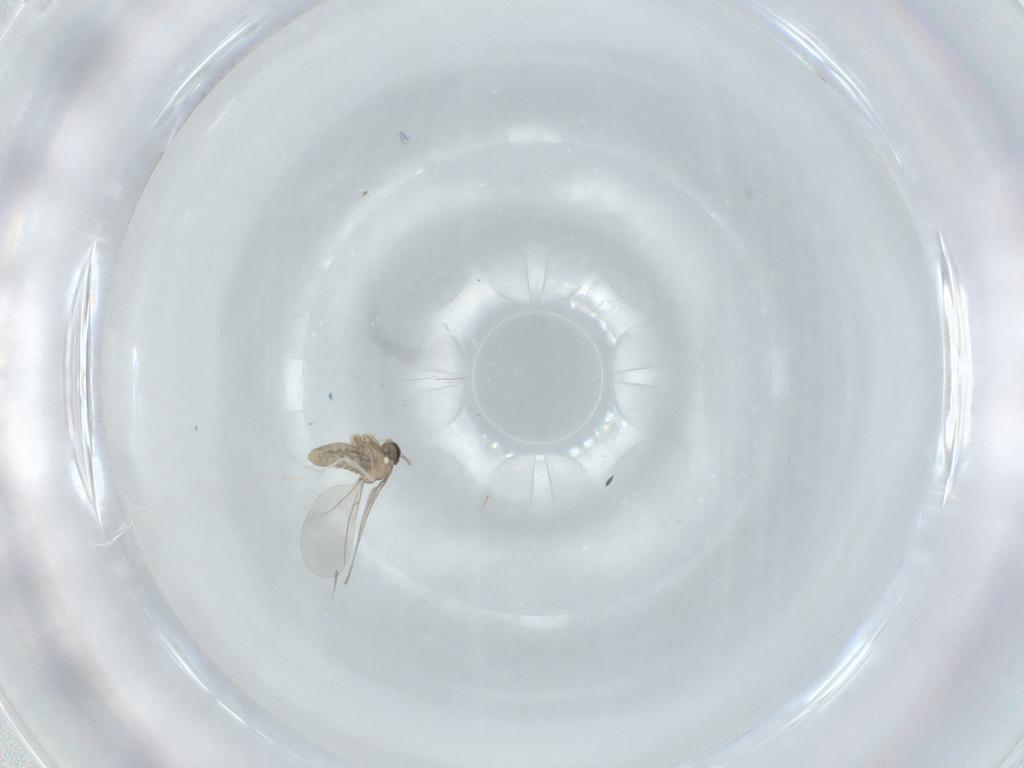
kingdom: Animalia
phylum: Arthropoda
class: Insecta
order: Diptera
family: Cecidomyiidae
